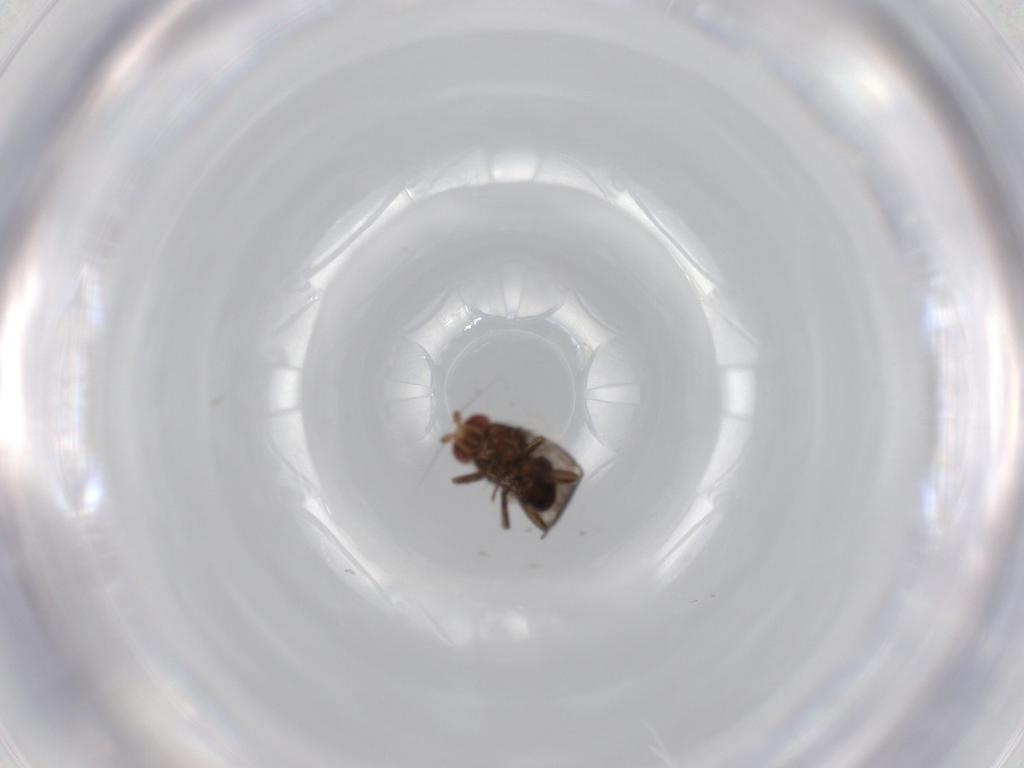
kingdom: Animalia
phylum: Arthropoda
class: Insecta
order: Diptera
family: Sphaeroceridae
